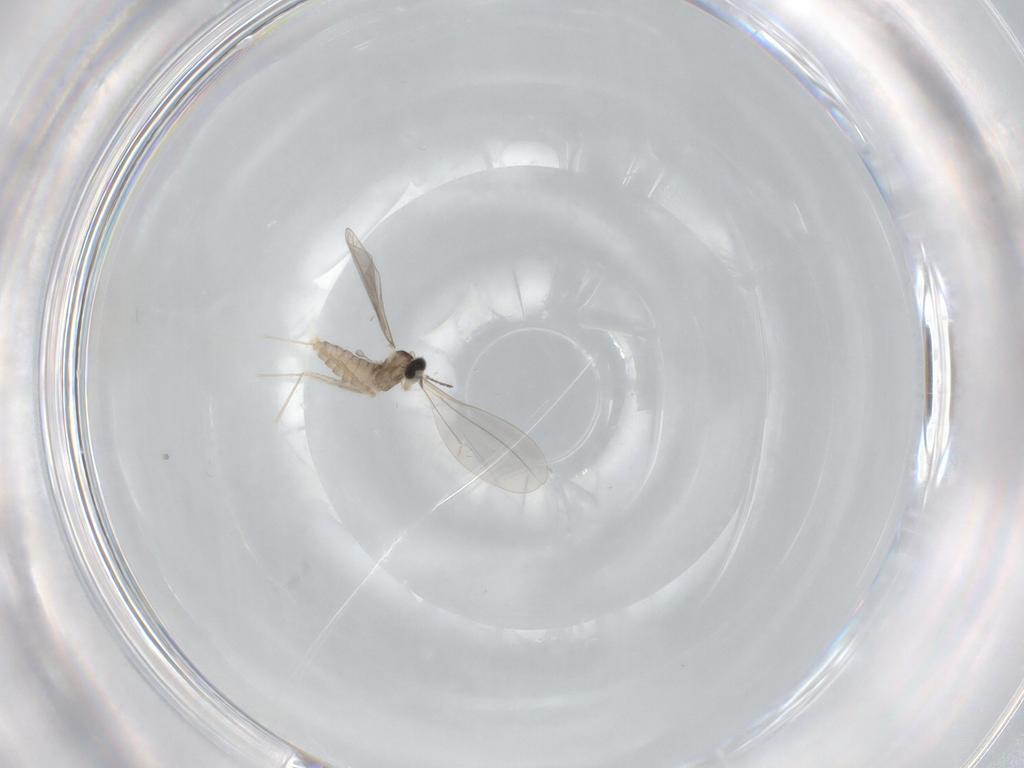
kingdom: Animalia
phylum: Arthropoda
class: Insecta
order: Diptera
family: Cecidomyiidae
